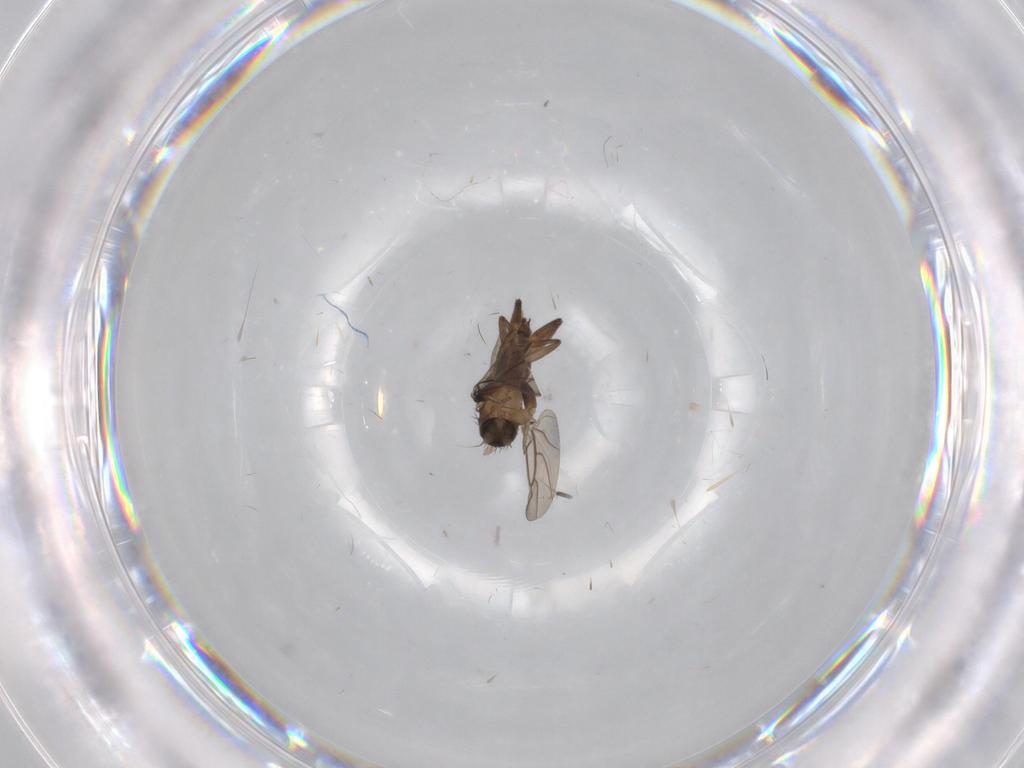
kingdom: Animalia
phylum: Arthropoda
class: Insecta
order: Diptera
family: Phoridae
